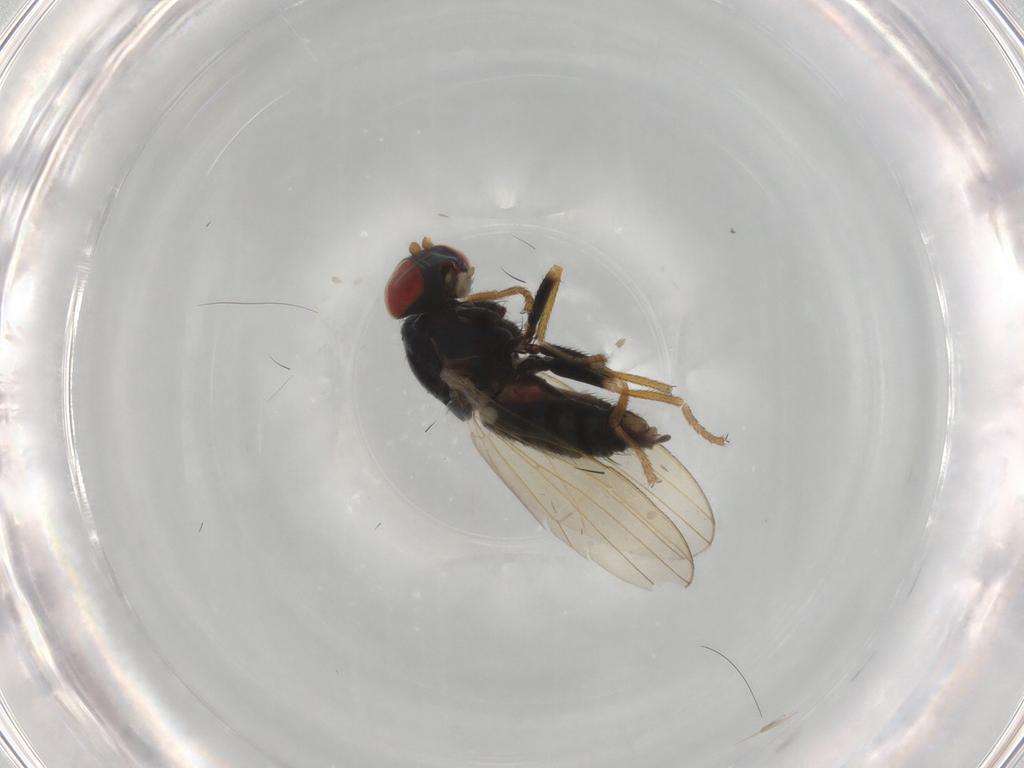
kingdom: Animalia
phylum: Arthropoda
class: Insecta
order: Diptera
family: Chamaemyiidae
